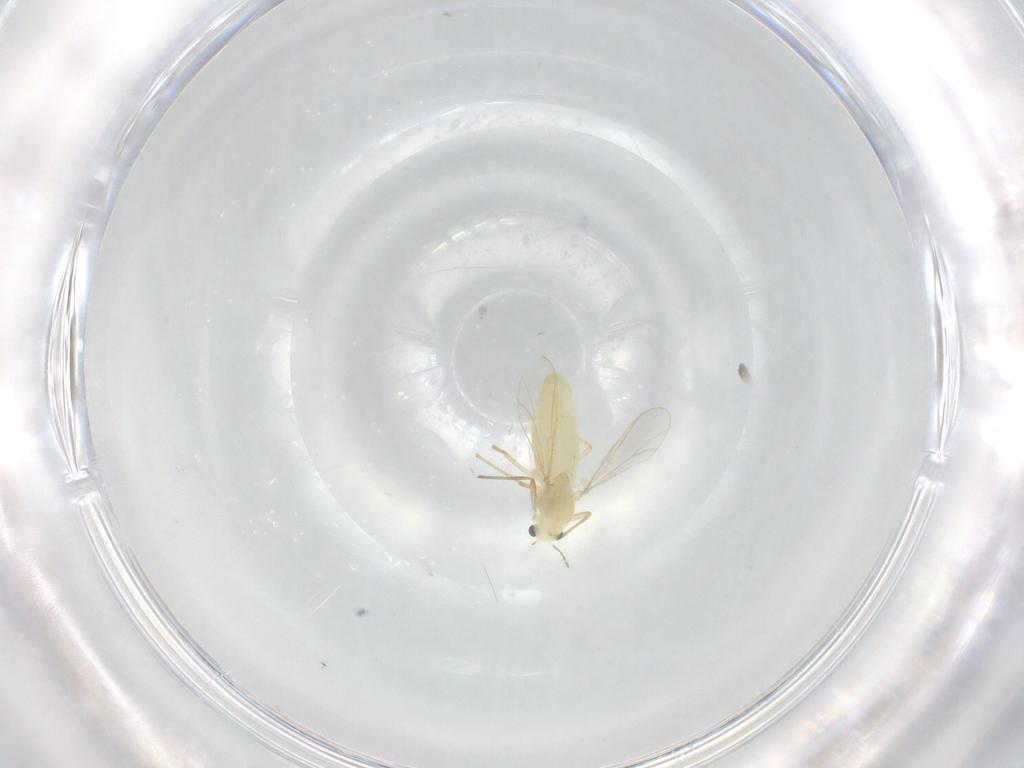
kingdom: Animalia
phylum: Arthropoda
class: Insecta
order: Diptera
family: Chironomidae
